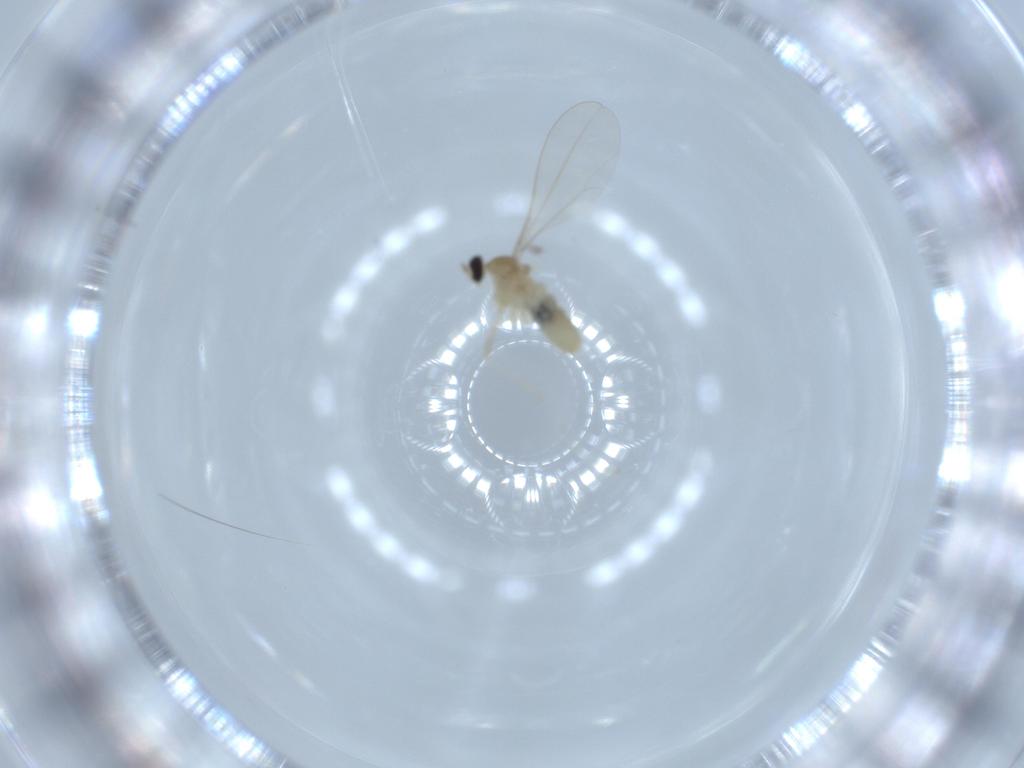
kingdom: Animalia
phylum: Arthropoda
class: Insecta
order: Diptera
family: Cecidomyiidae
